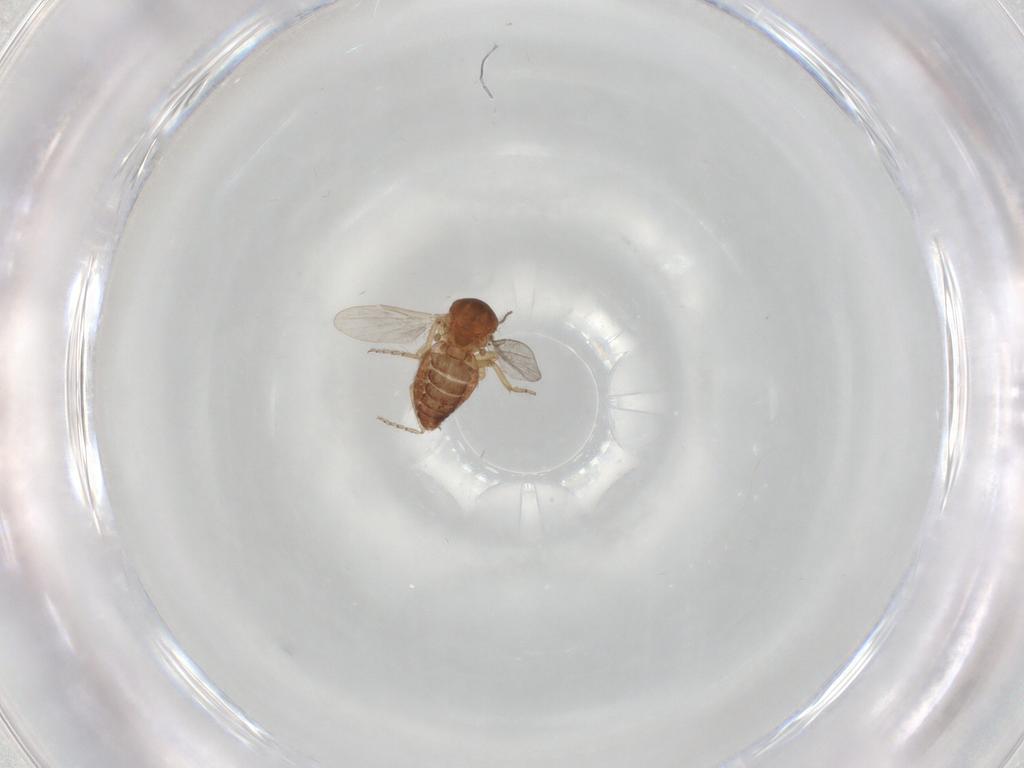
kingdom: Animalia
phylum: Arthropoda
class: Insecta
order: Diptera
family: Ceratopogonidae
